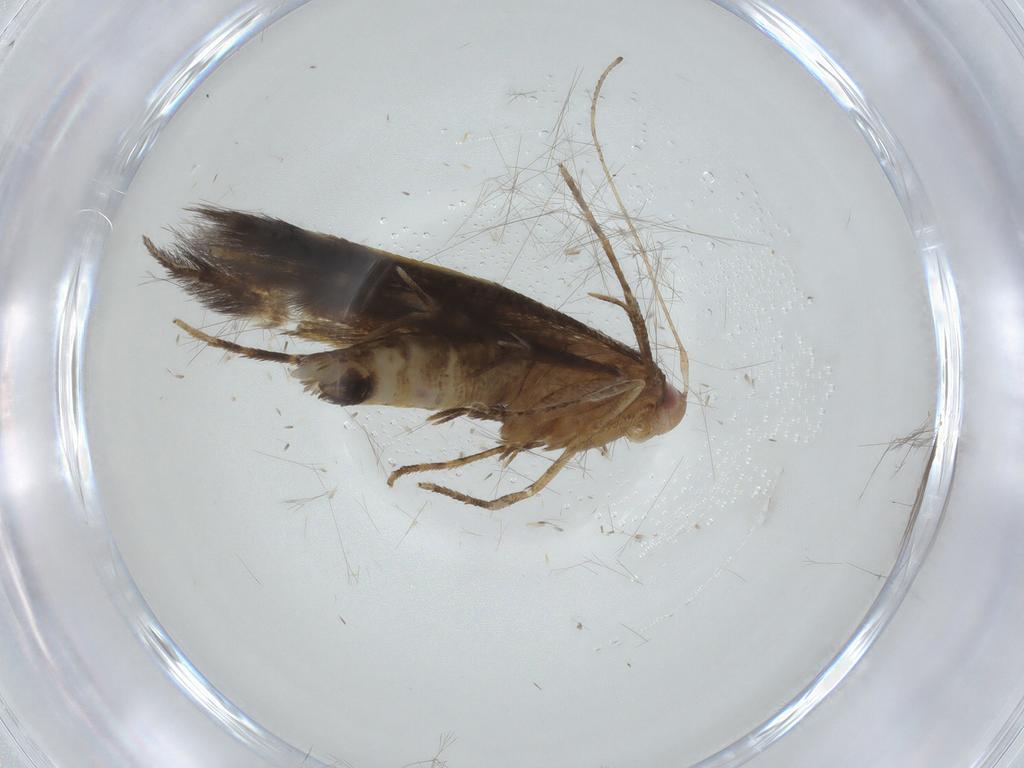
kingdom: Animalia
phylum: Arthropoda
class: Insecta
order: Lepidoptera
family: Cosmopterigidae
